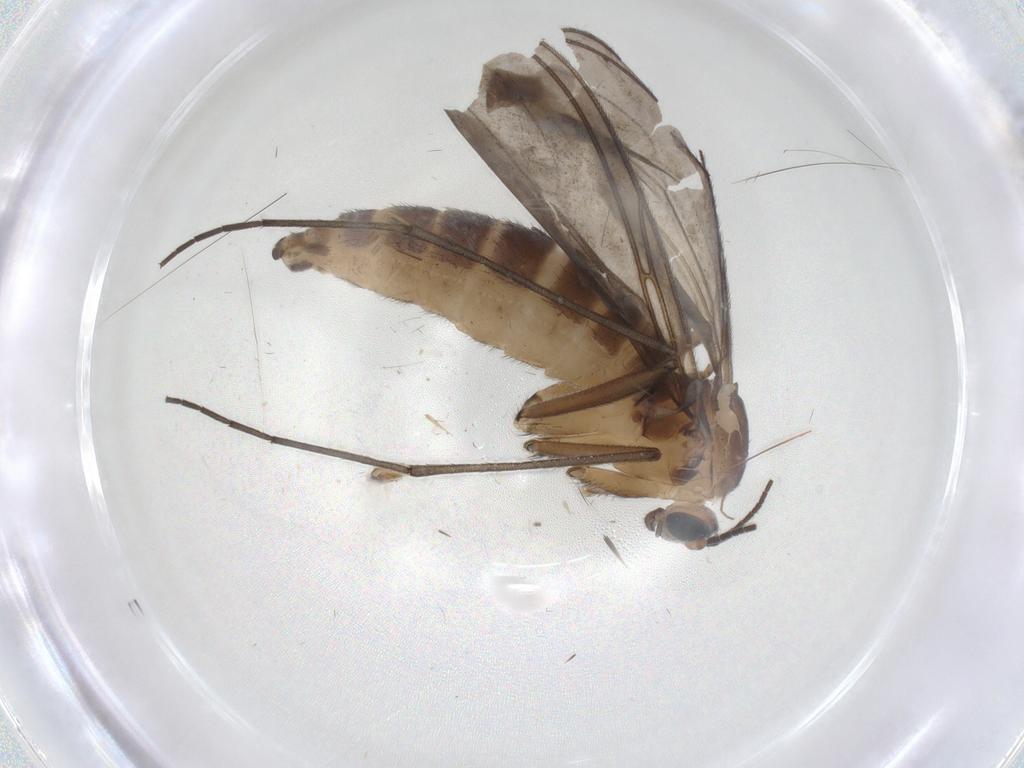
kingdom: Animalia
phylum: Arthropoda
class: Insecta
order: Diptera
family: Sciaridae
